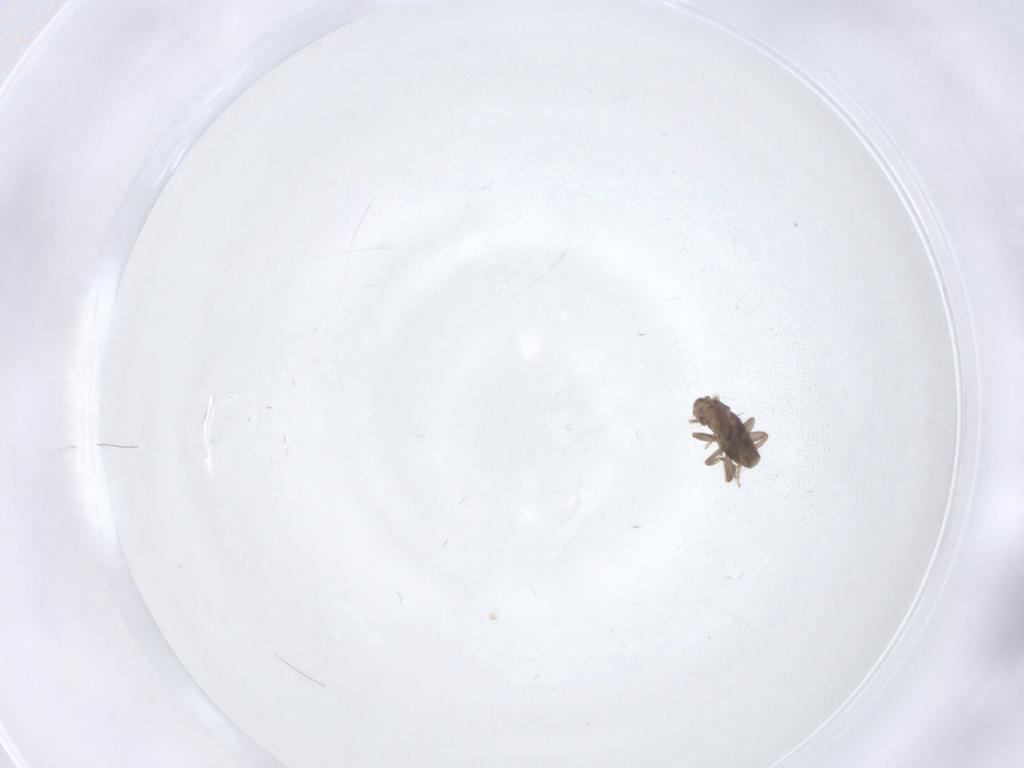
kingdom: Animalia
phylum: Arthropoda
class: Insecta
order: Diptera
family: Phoridae
